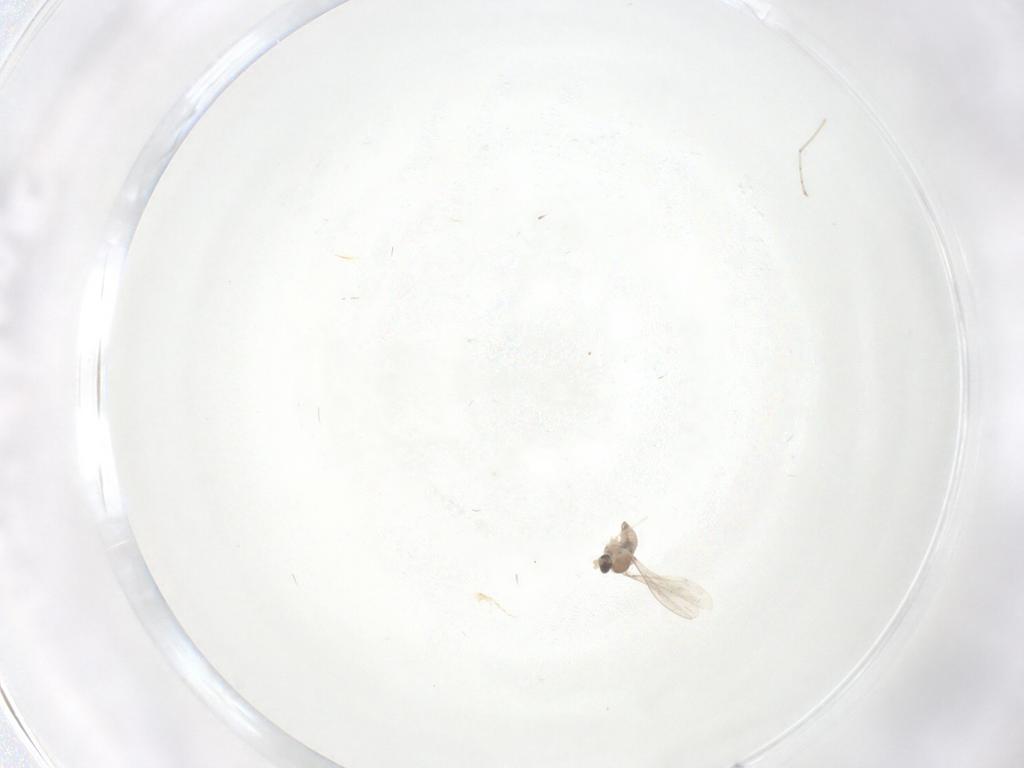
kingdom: Animalia
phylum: Arthropoda
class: Insecta
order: Diptera
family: Cecidomyiidae
